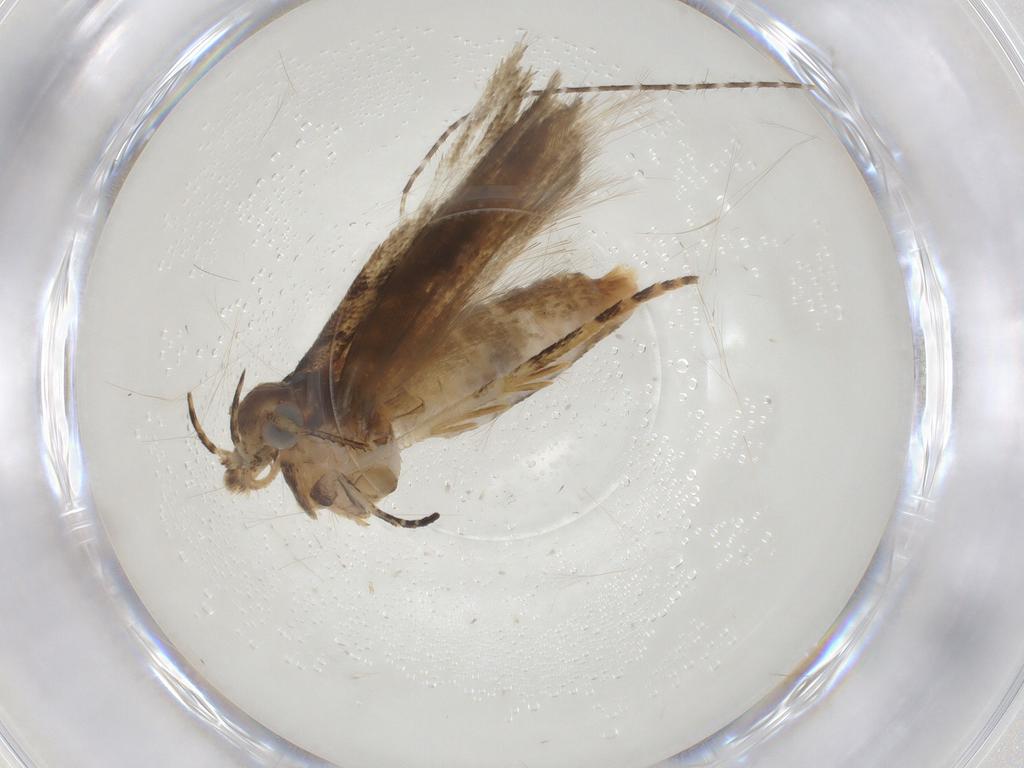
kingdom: Animalia
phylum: Arthropoda
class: Insecta
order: Lepidoptera
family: Gelechiidae
